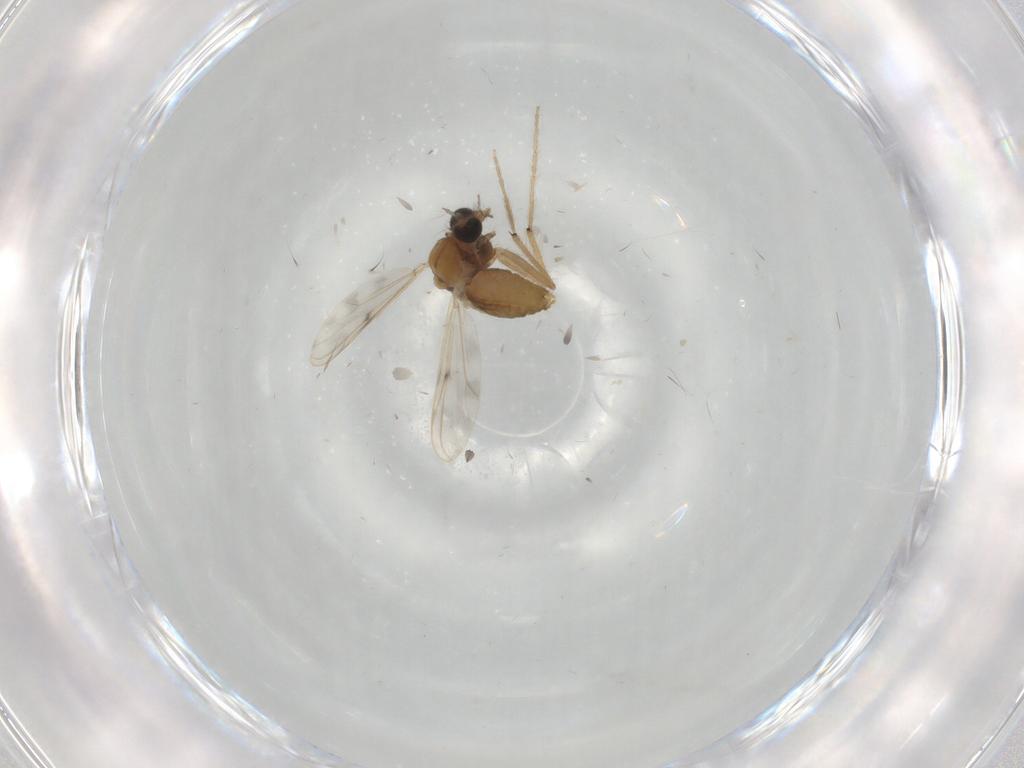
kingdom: Animalia
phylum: Arthropoda
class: Insecta
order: Diptera
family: Chironomidae
